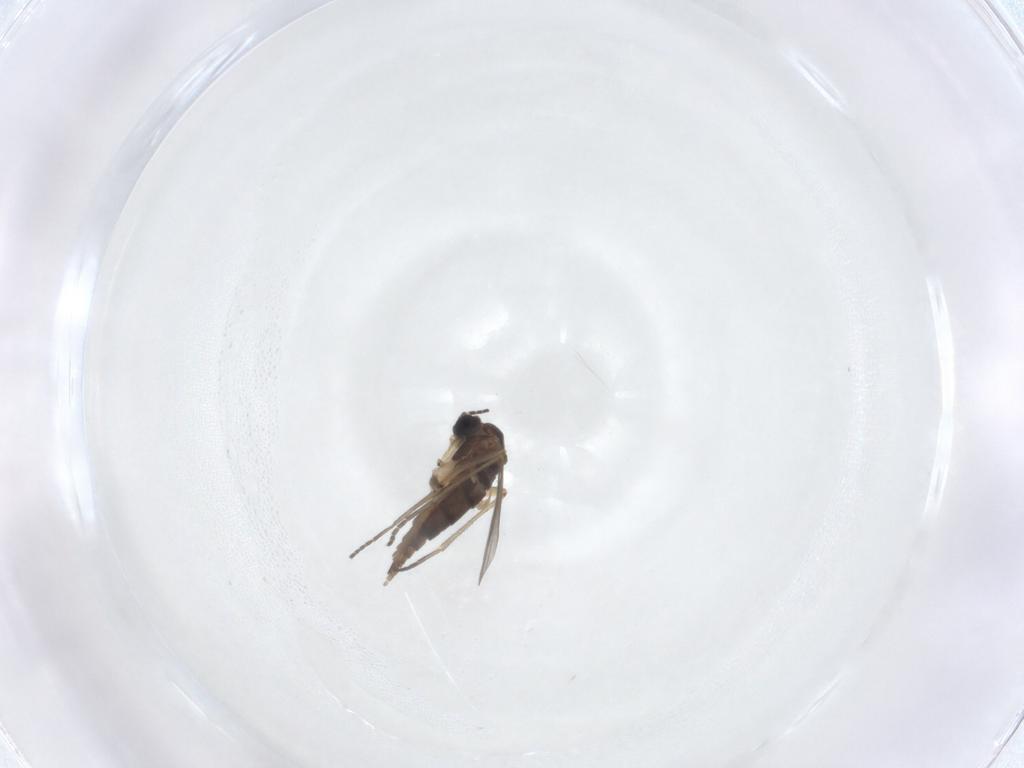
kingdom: Animalia
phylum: Arthropoda
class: Insecta
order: Diptera
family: Sciaridae
